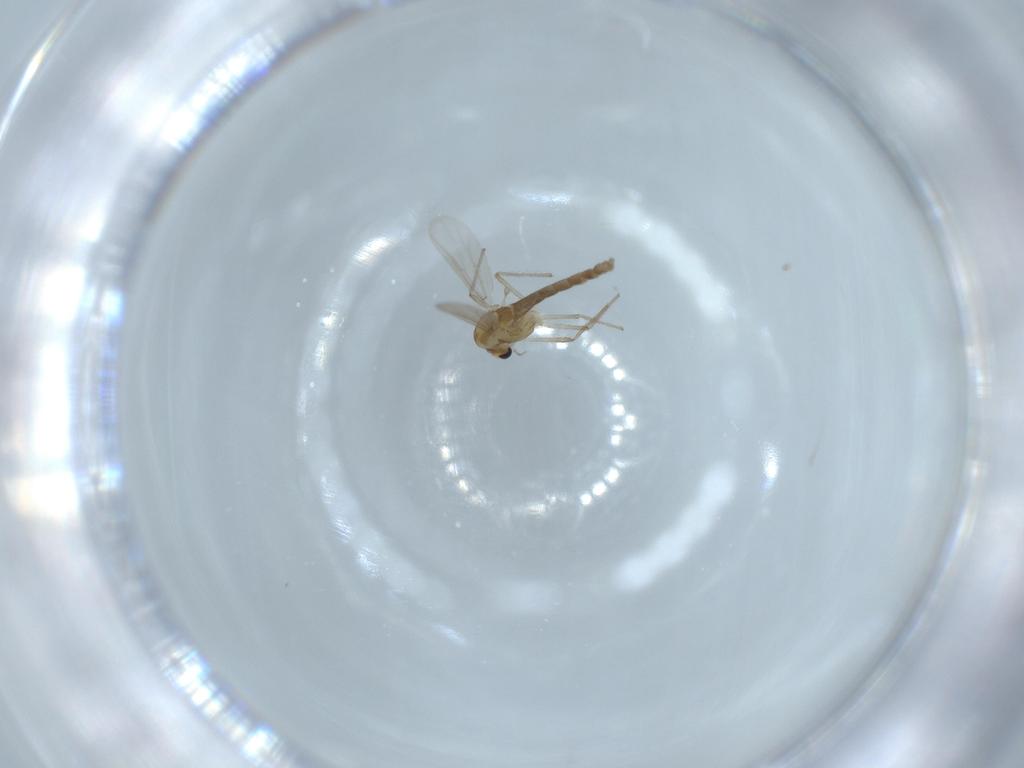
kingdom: Animalia
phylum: Arthropoda
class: Insecta
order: Diptera
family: Chironomidae
